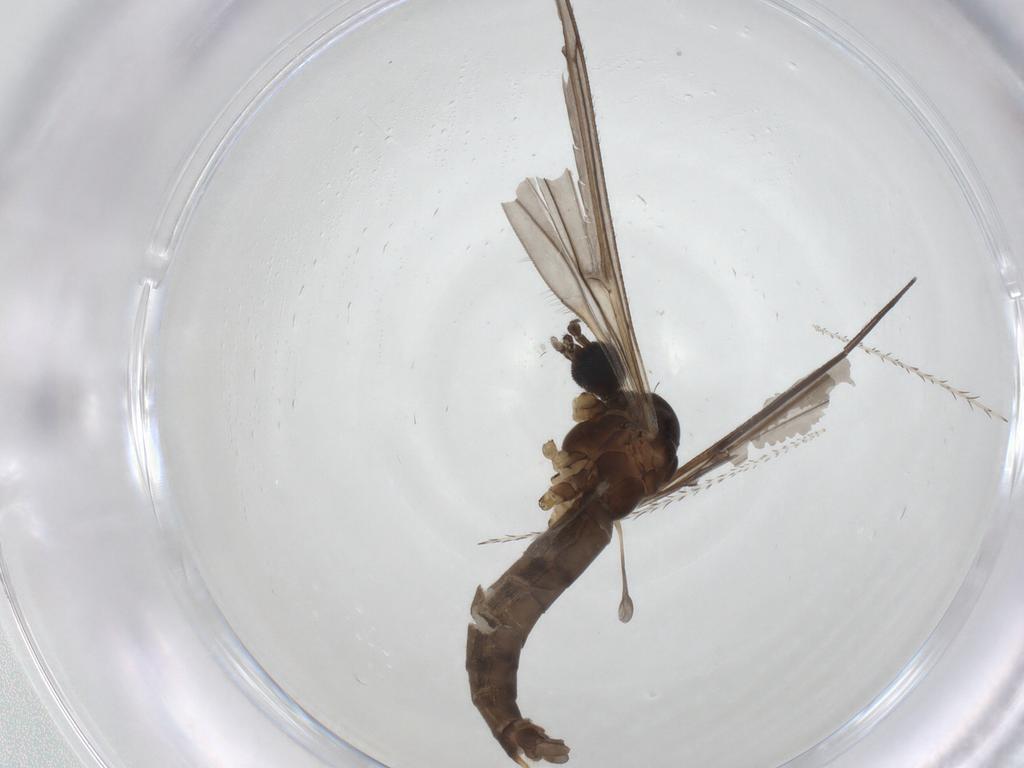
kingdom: Animalia
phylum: Arthropoda
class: Insecta
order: Diptera
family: Limoniidae
